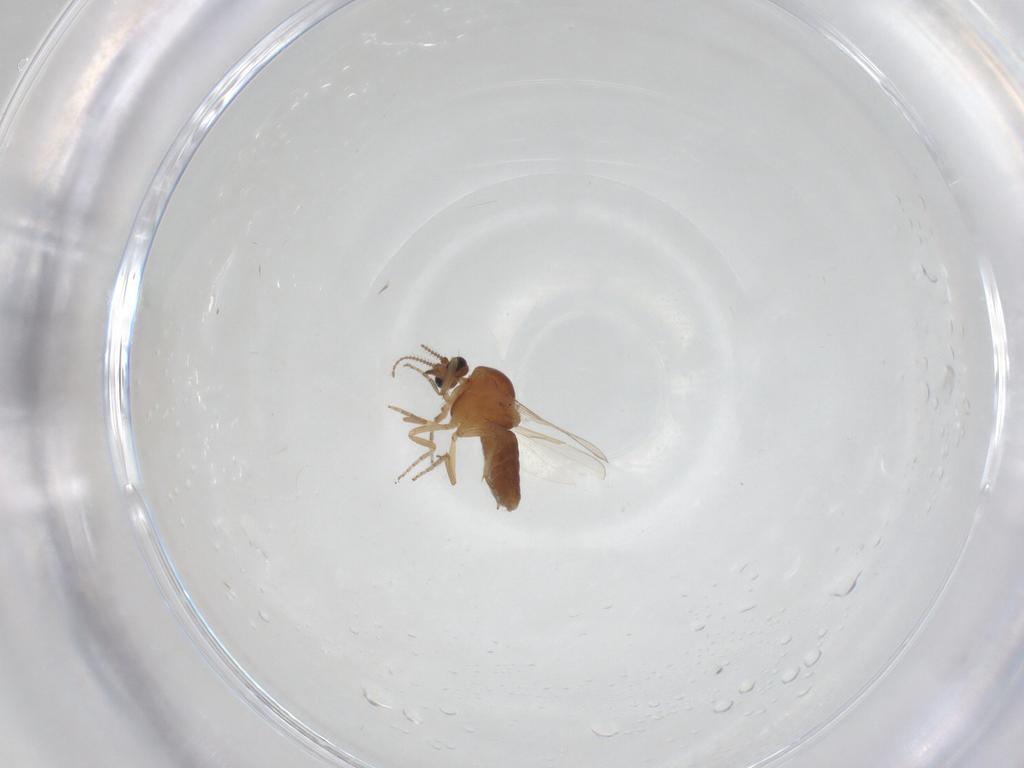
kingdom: Animalia
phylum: Arthropoda
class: Insecta
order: Diptera
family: Ceratopogonidae
